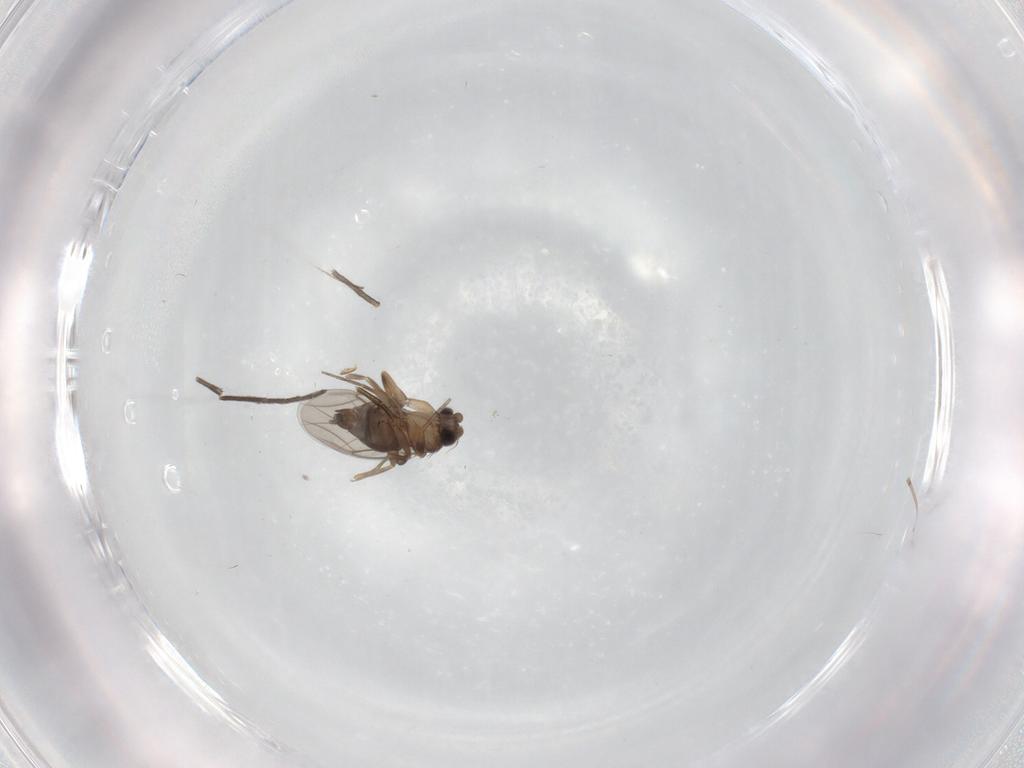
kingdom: Animalia
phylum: Arthropoda
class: Insecta
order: Diptera
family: Phoridae
